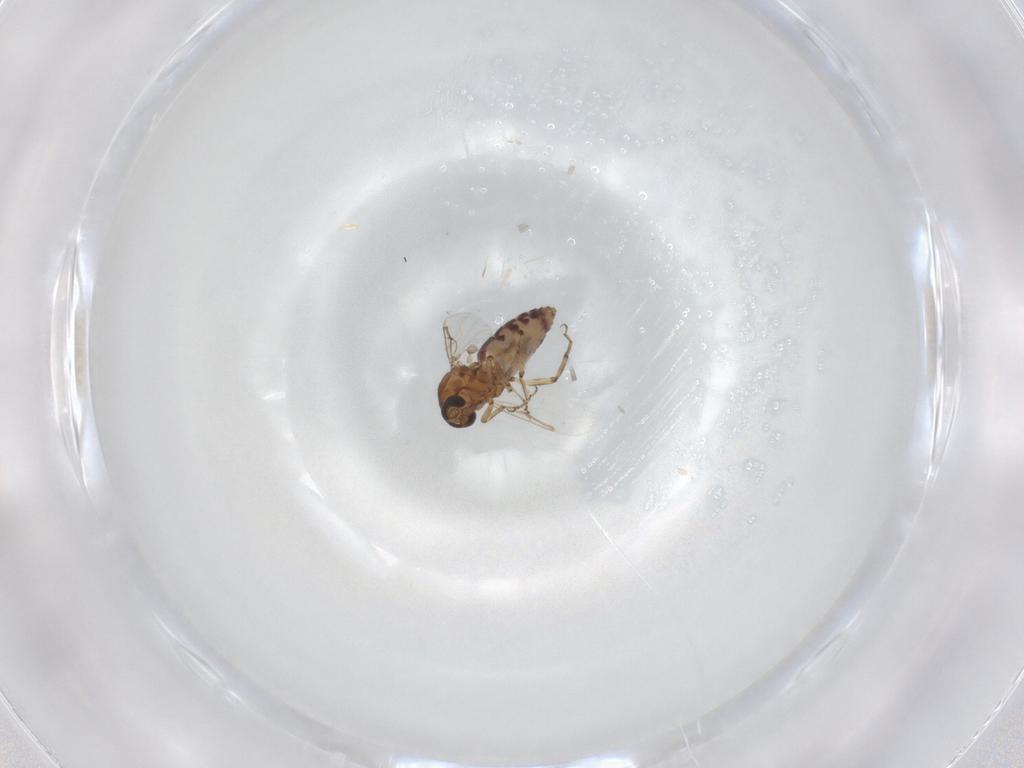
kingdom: Animalia
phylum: Arthropoda
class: Insecta
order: Diptera
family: Ceratopogonidae
